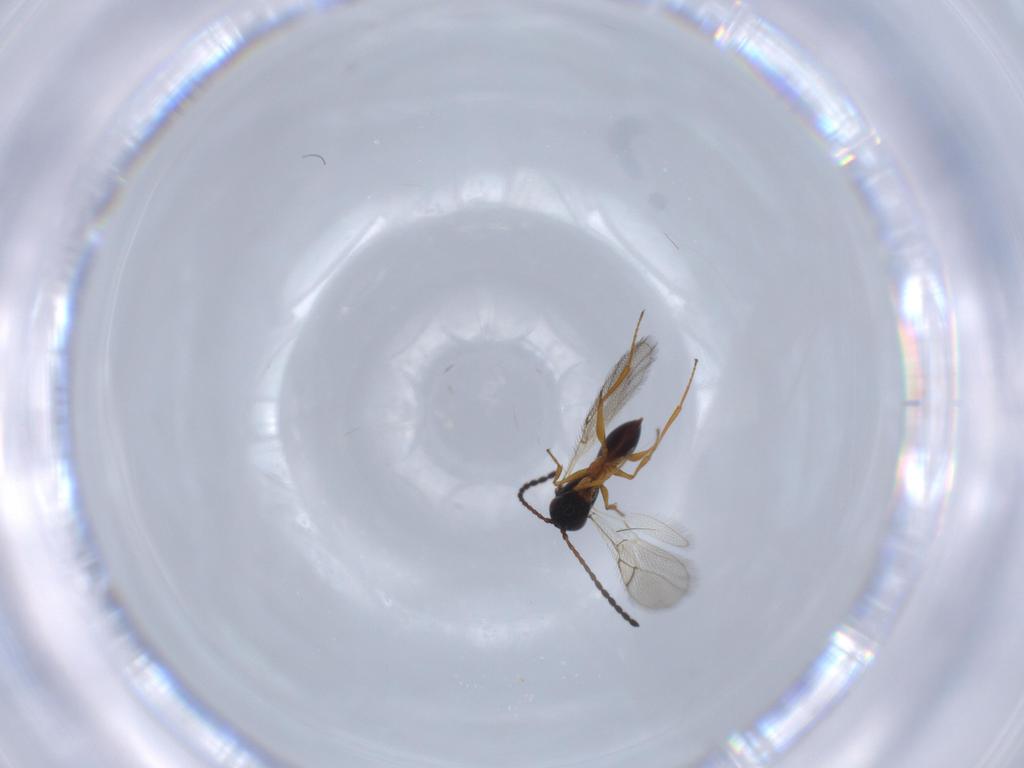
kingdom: Animalia
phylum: Arthropoda
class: Insecta
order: Hymenoptera
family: Figitidae
